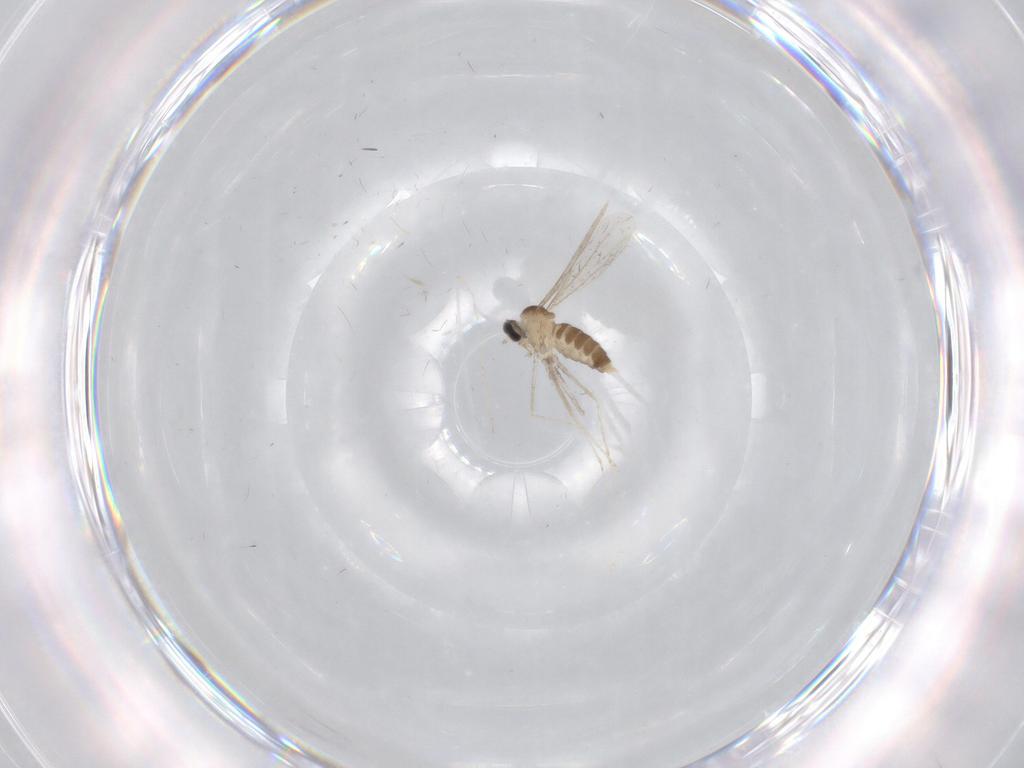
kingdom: Animalia
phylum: Arthropoda
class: Insecta
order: Diptera
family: Cecidomyiidae
